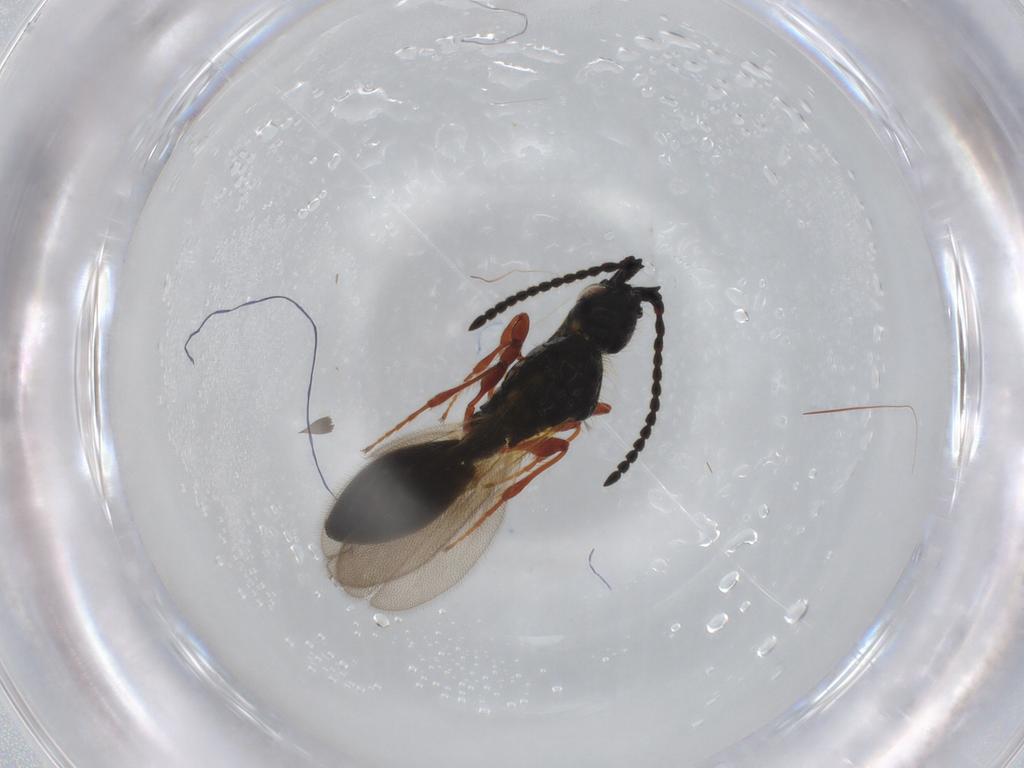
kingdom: Animalia
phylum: Arthropoda
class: Insecta
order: Hymenoptera
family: Diapriidae
